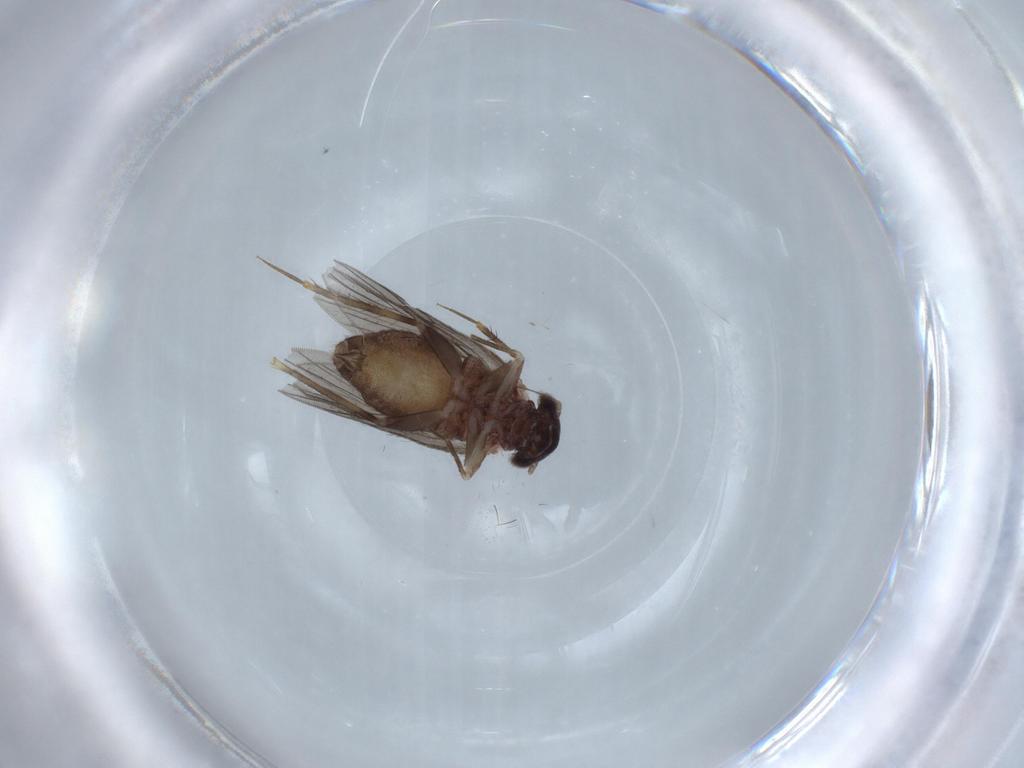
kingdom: Animalia
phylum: Arthropoda
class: Insecta
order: Psocodea
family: Lepidopsocidae
